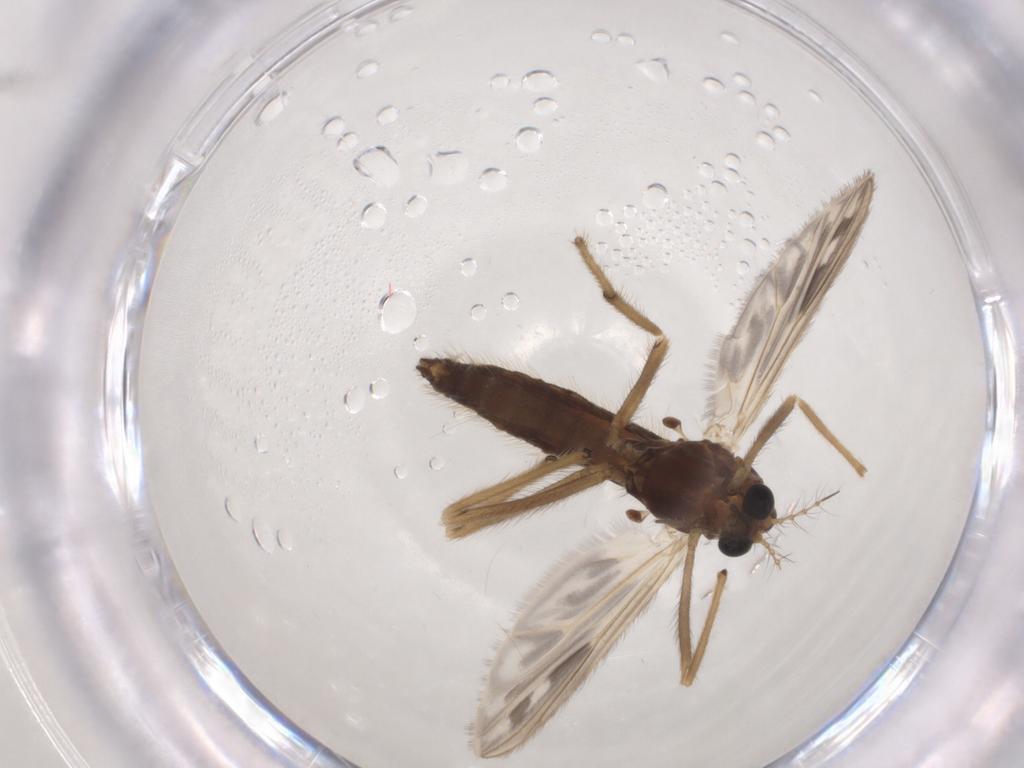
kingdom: Animalia
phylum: Arthropoda
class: Insecta
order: Diptera
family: Chironomidae
